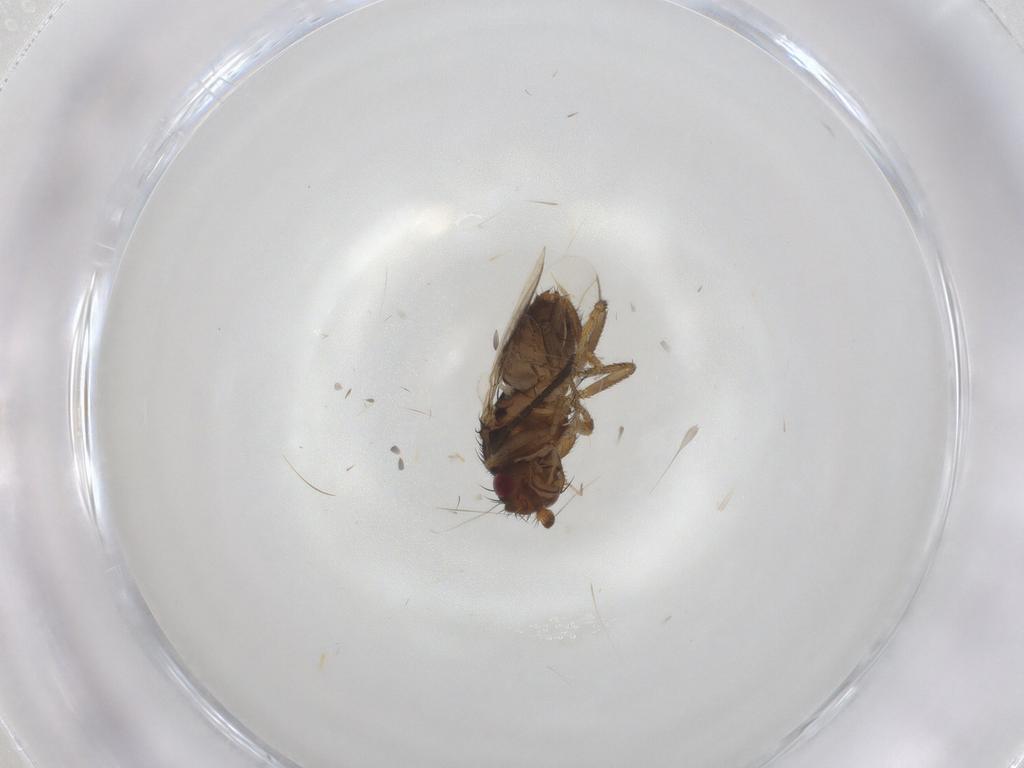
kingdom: Animalia
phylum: Arthropoda
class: Insecta
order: Diptera
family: Sphaeroceridae
